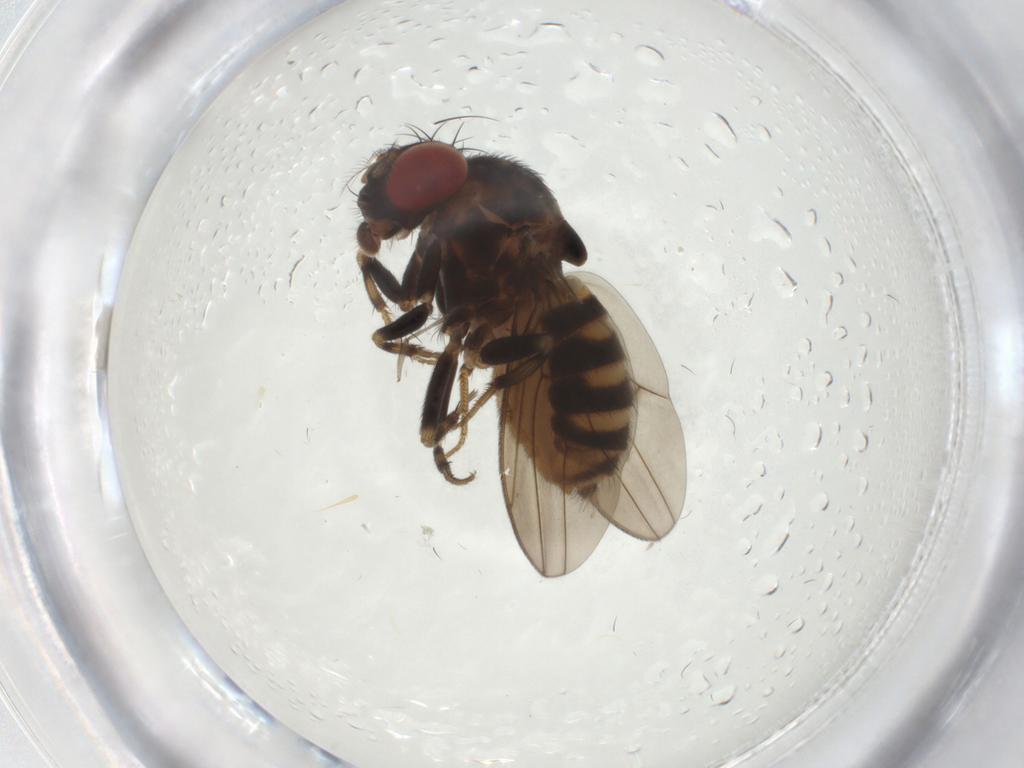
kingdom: Animalia
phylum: Arthropoda
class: Insecta
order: Diptera
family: Drosophilidae
